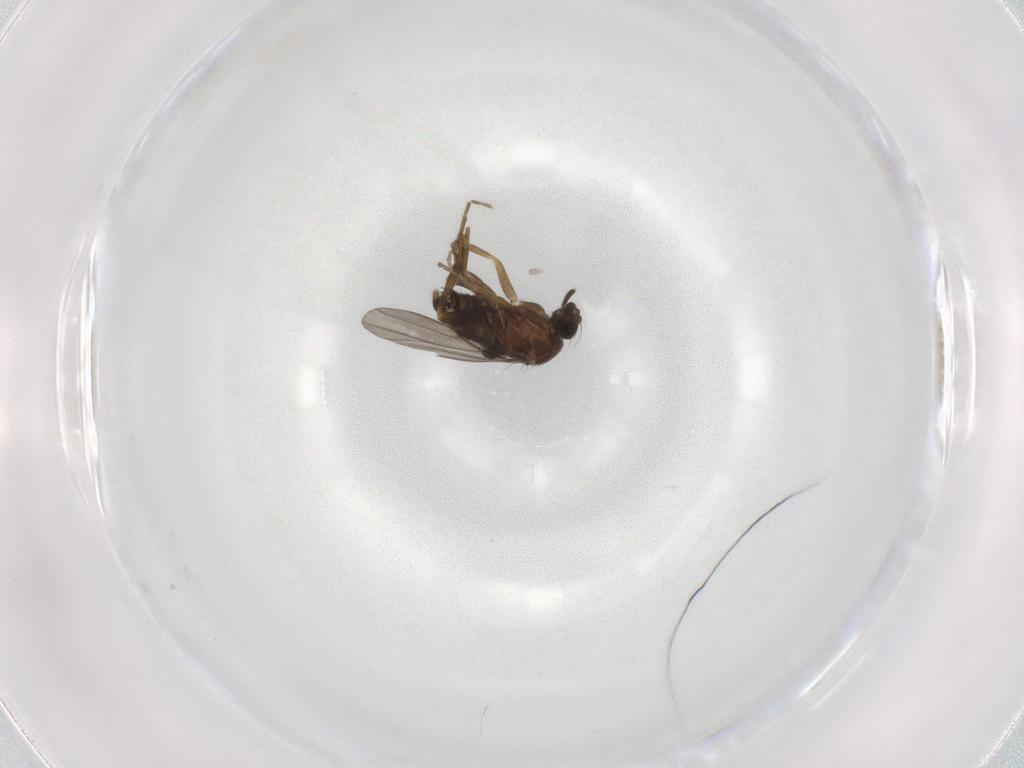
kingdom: Animalia
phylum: Arthropoda
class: Insecta
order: Diptera
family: Phoridae
